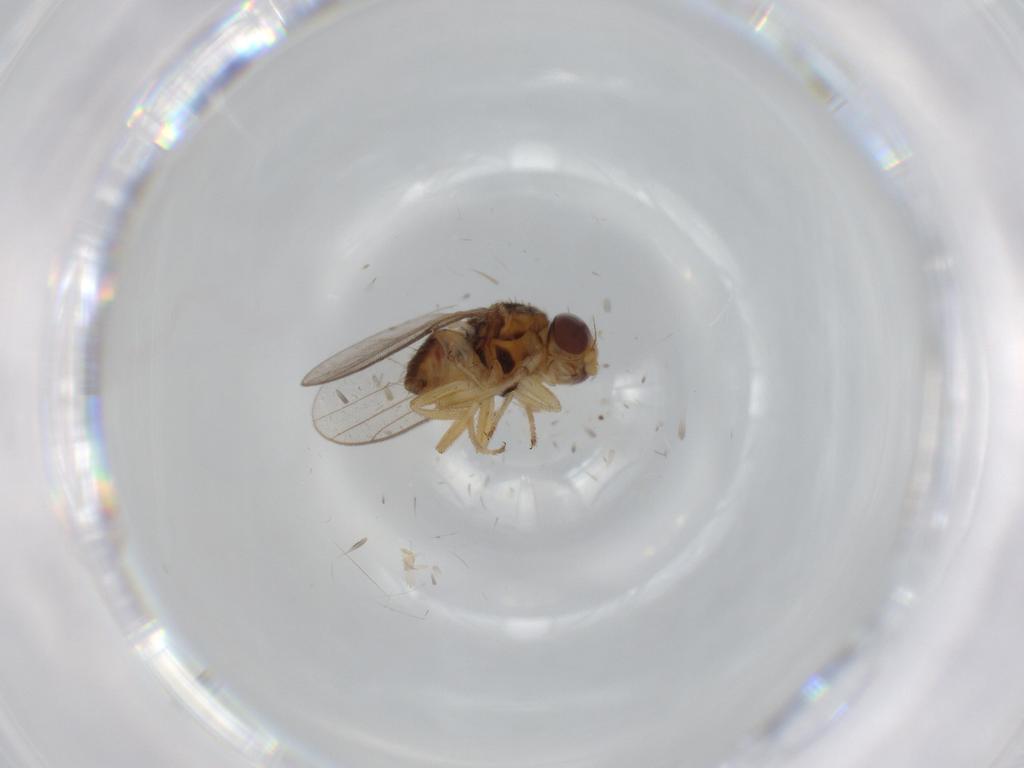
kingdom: Animalia
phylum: Arthropoda
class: Insecta
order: Diptera
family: Chloropidae
